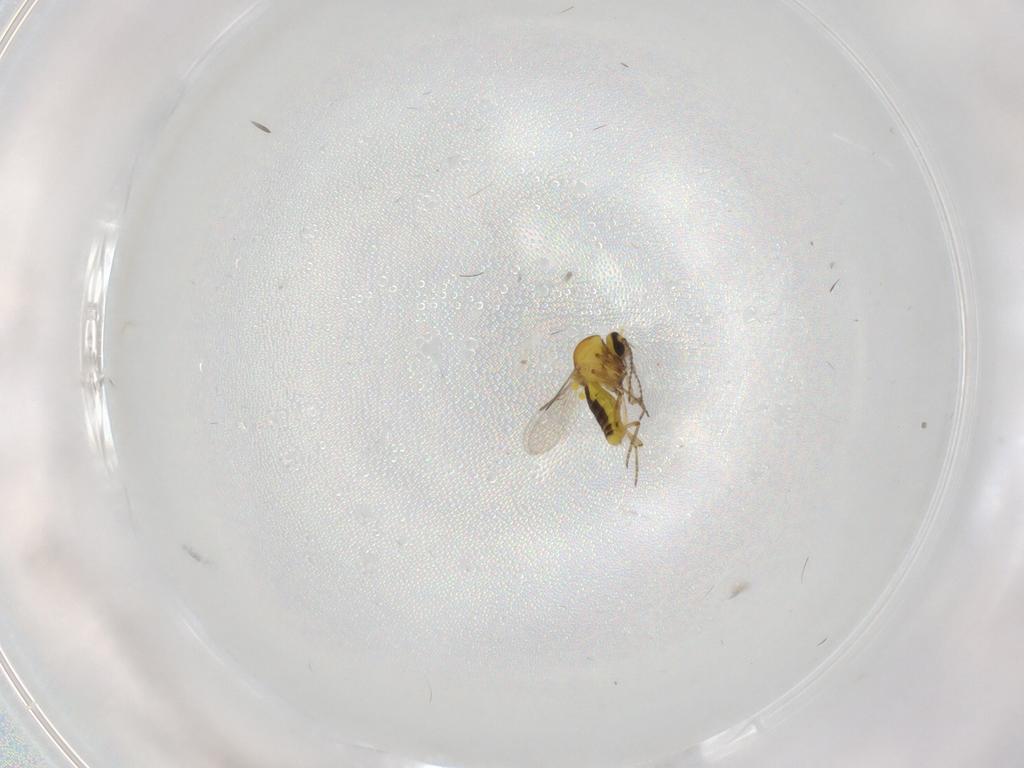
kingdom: Animalia
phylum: Arthropoda
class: Insecta
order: Diptera
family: Ceratopogonidae
